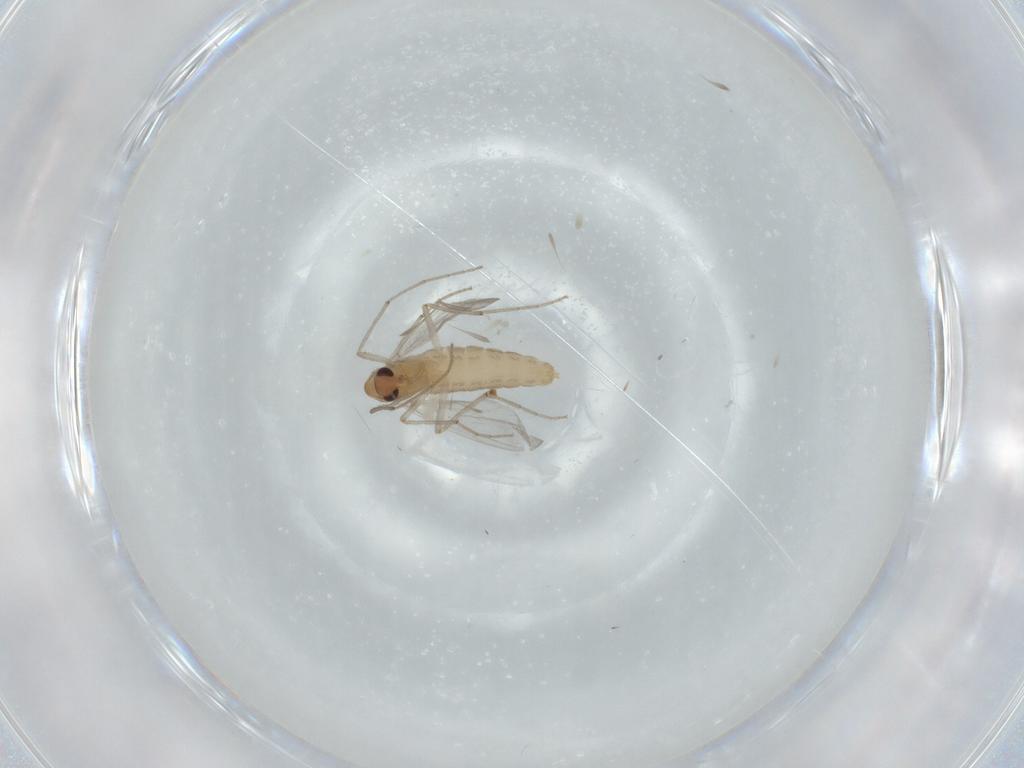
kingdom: Animalia
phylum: Arthropoda
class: Insecta
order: Diptera
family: Chironomidae
